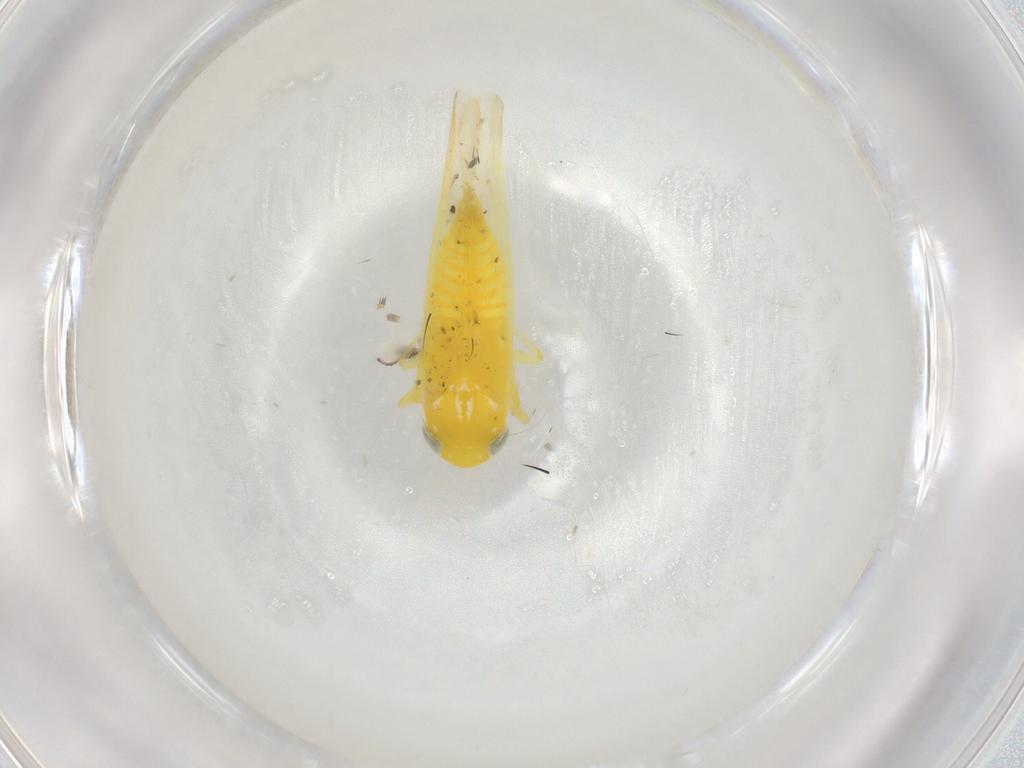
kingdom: Animalia
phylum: Arthropoda
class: Insecta
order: Hemiptera
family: Cicadellidae
